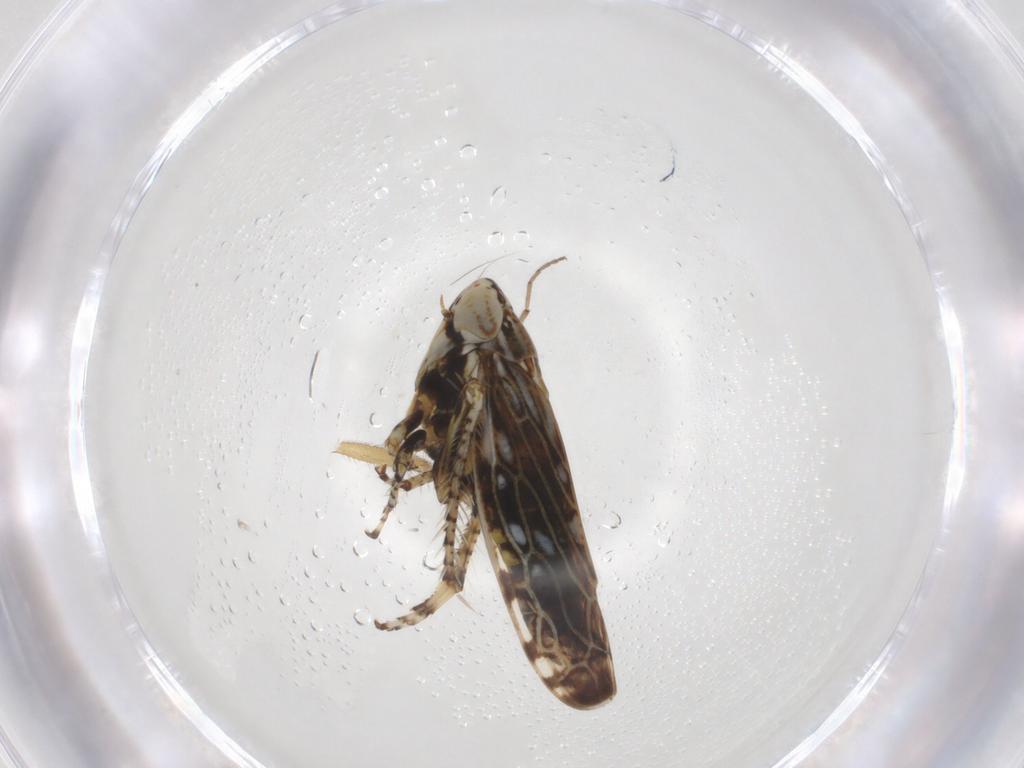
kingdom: Animalia
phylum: Arthropoda
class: Insecta
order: Hemiptera
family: Cicadellidae
